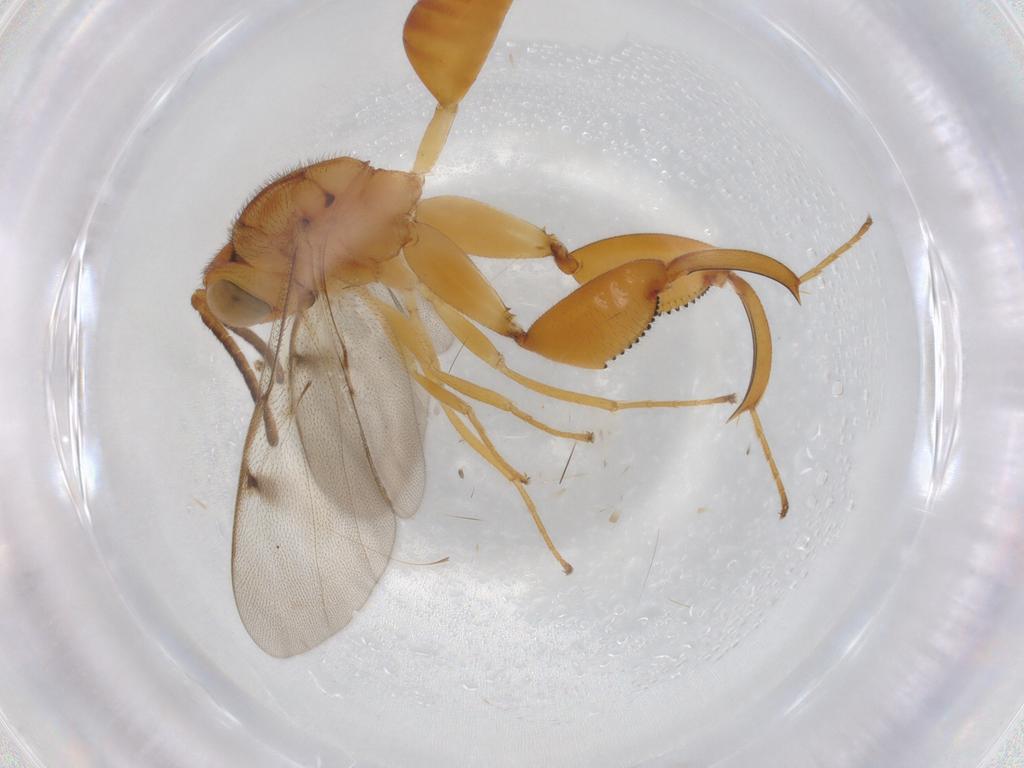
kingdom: Animalia
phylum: Arthropoda
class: Insecta
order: Hymenoptera
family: Chalcididae
